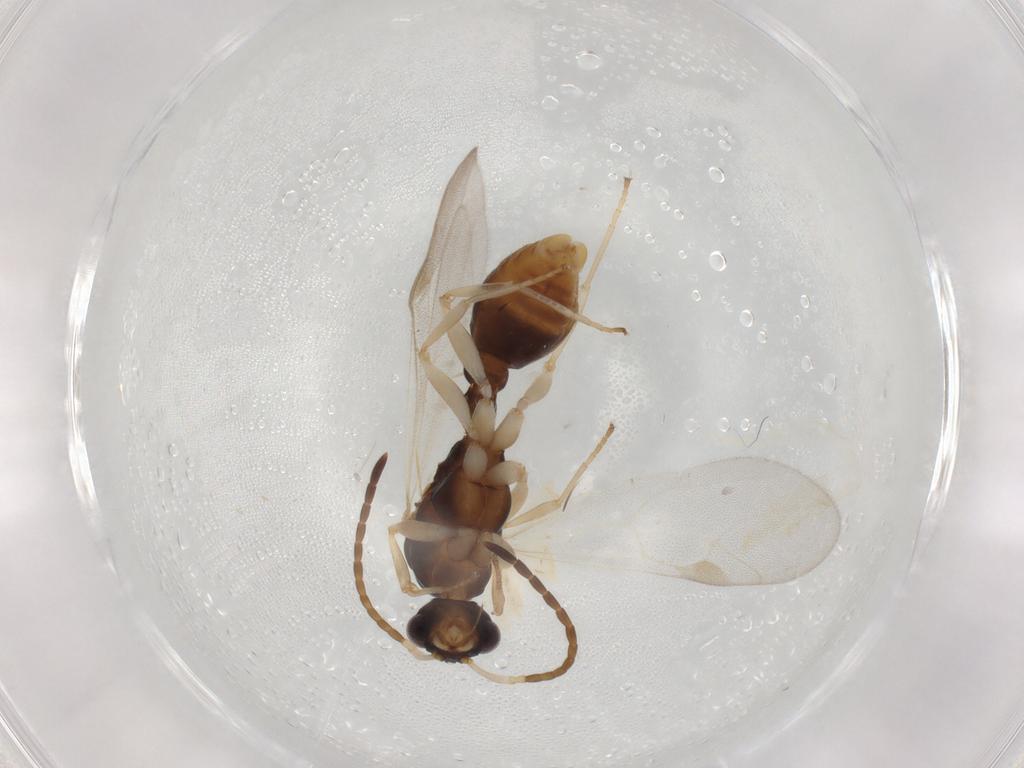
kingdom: Animalia
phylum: Arthropoda
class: Insecta
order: Hymenoptera
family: Formicidae
